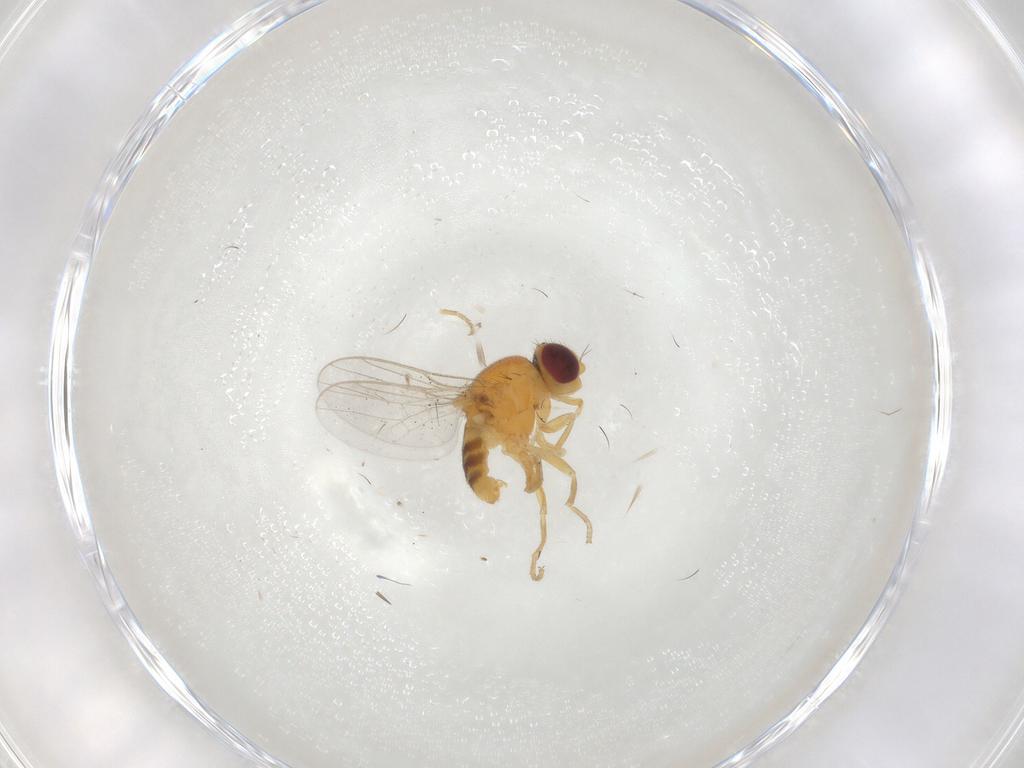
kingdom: Animalia
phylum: Arthropoda
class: Insecta
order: Diptera
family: Chloropidae
